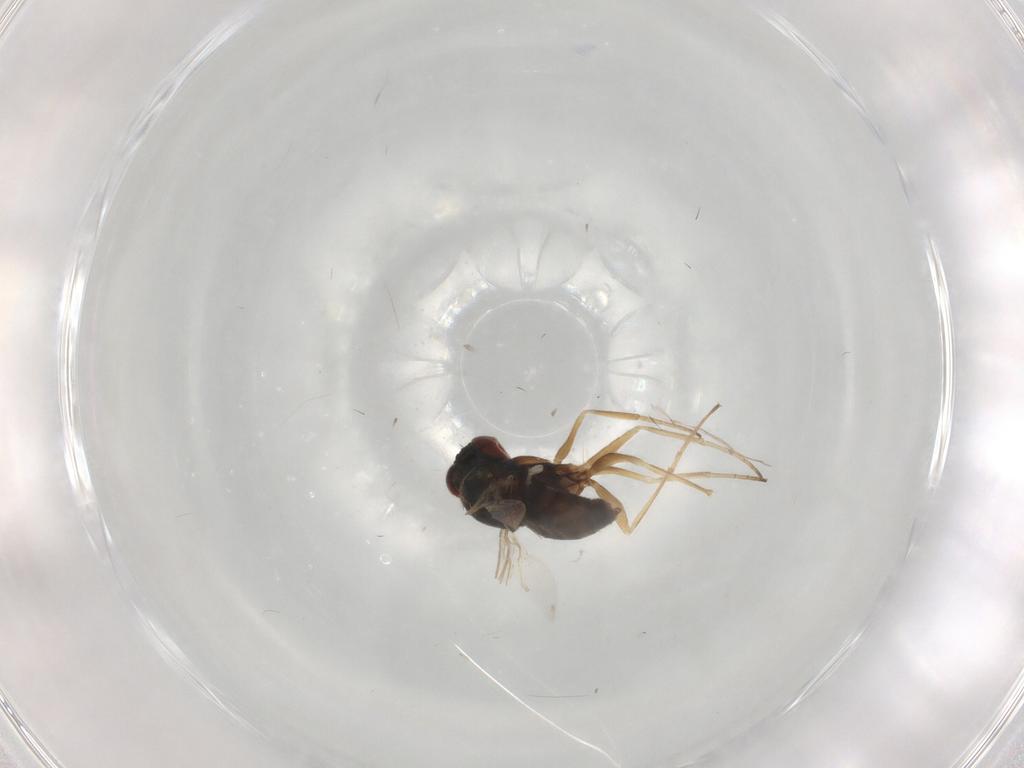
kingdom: Animalia
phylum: Arthropoda
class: Insecta
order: Diptera
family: Dolichopodidae
